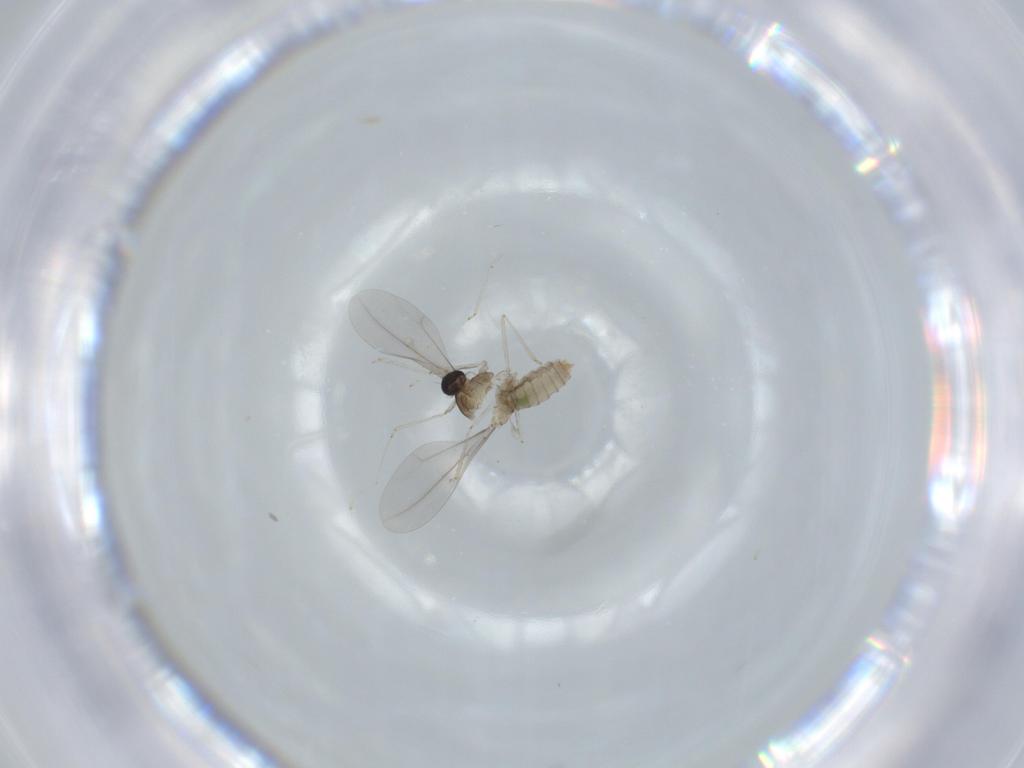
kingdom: Animalia
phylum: Arthropoda
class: Insecta
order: Diptera
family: Cecidomyiidae
